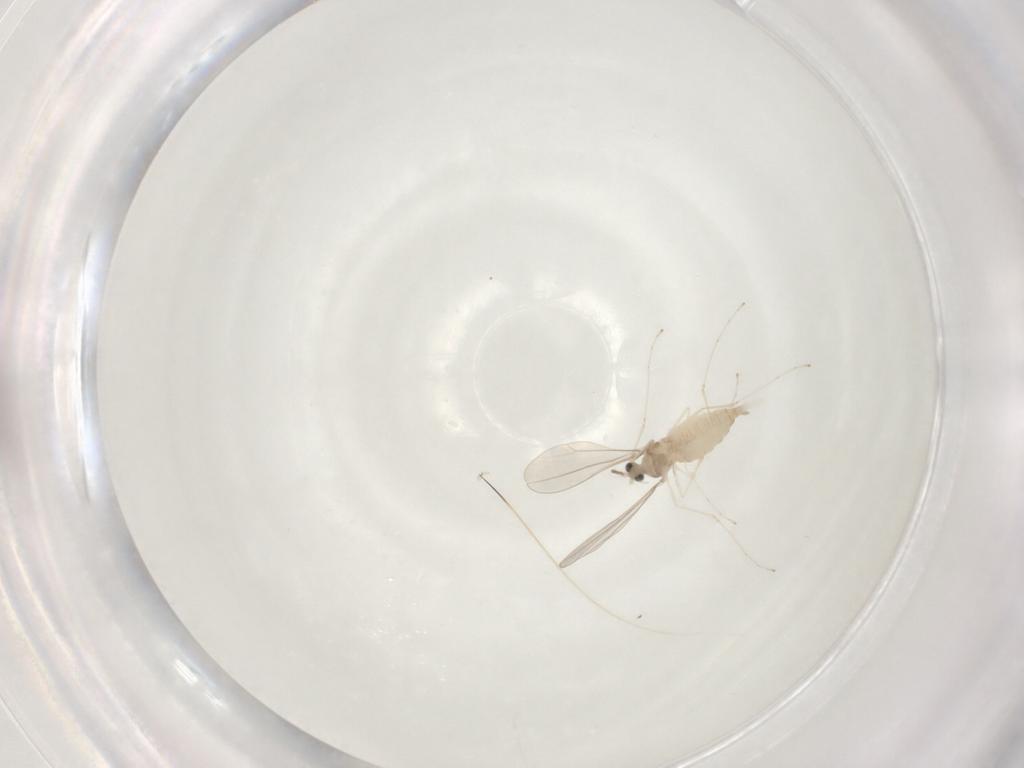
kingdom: Animalia
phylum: Arthropoda
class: Insecta
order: Diptera
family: Cecidomyiidae
